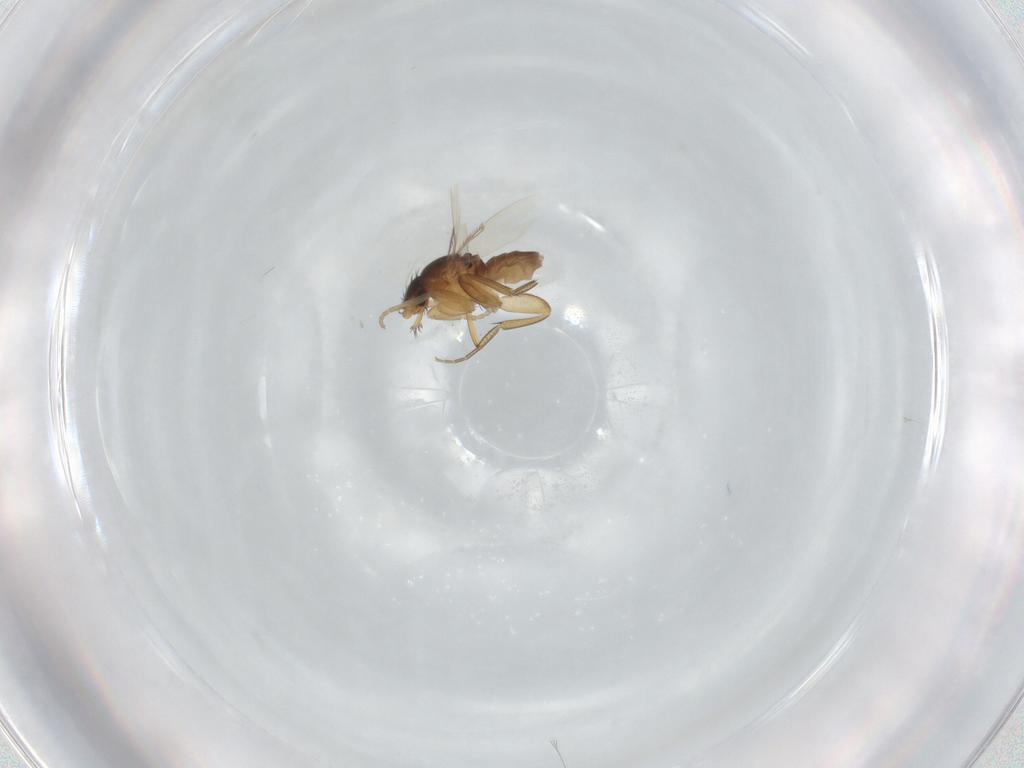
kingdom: Animalia
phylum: Arthropoda
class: Insecta
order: Diptera
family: Phoridae
